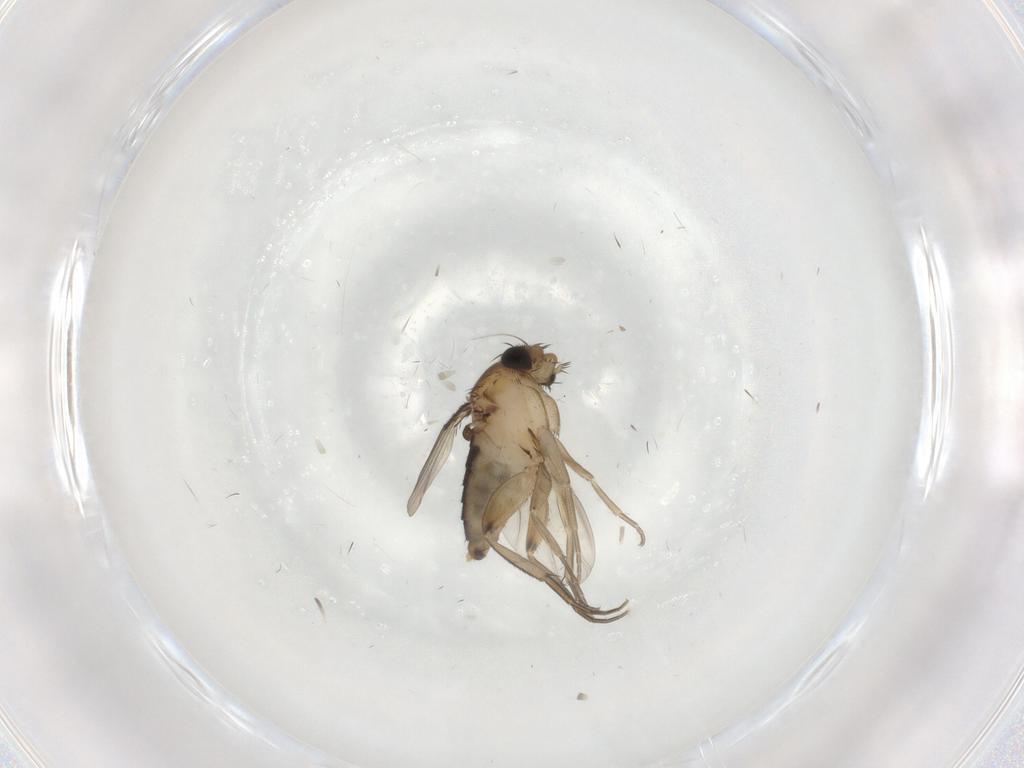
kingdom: Animalia
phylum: Arthropoda
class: Insecta
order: Diptera
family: Phoridae
